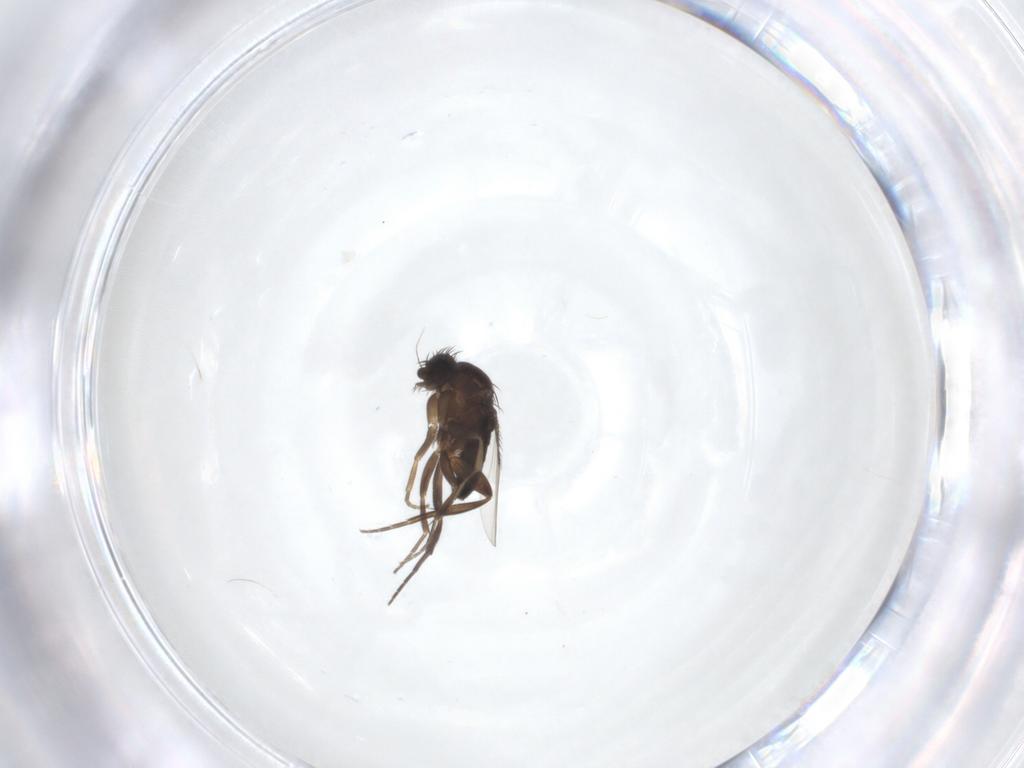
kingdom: Animalia
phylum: Arthropoda
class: Insecta
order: Diptera
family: Phoridae
